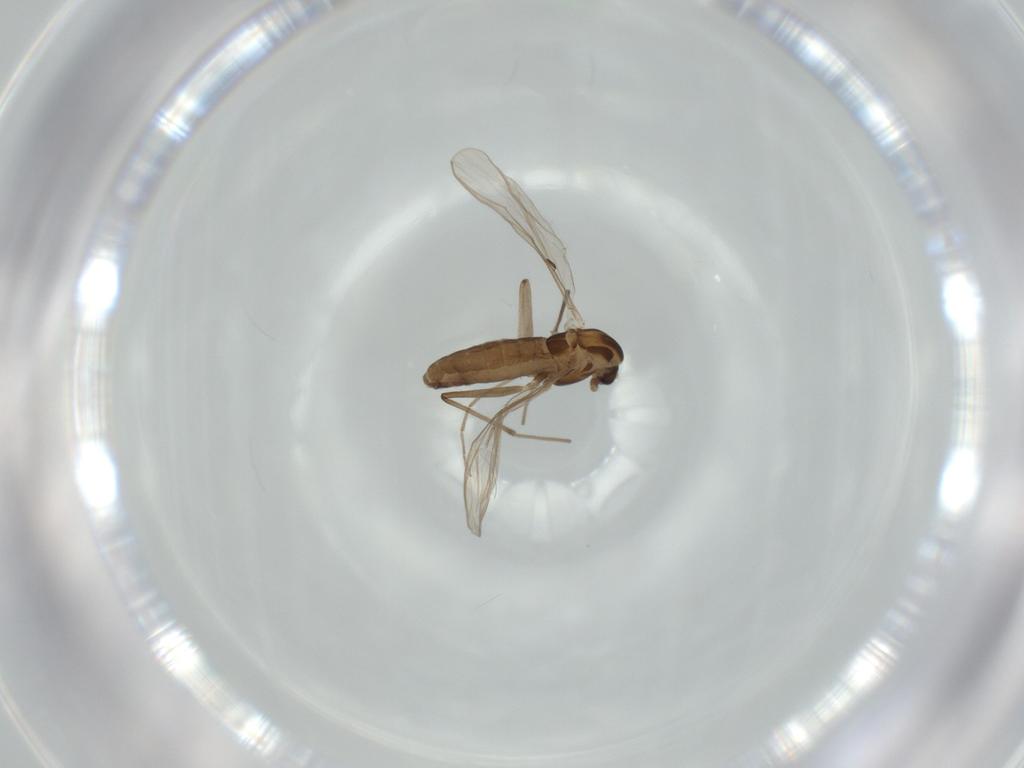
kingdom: Animalia
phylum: Arthropoda
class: Insecta
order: Diptera
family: Chironomidae
